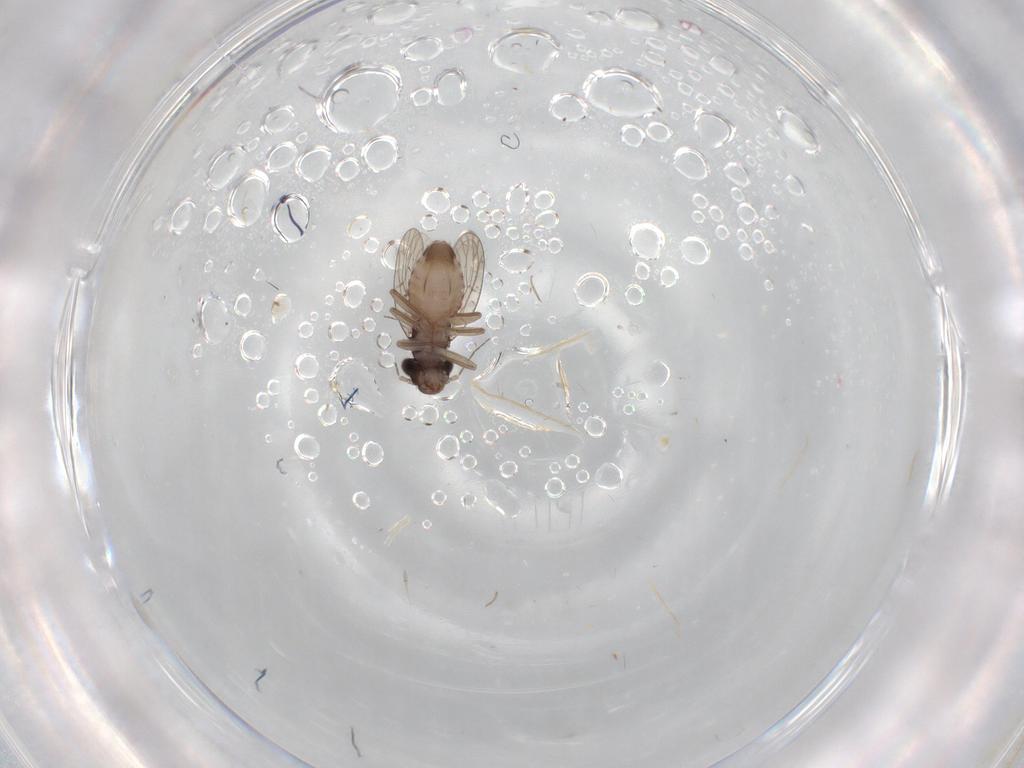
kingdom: Animalia
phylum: Arthropoda
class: Insecta
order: Psocodea
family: Psoquillidae
